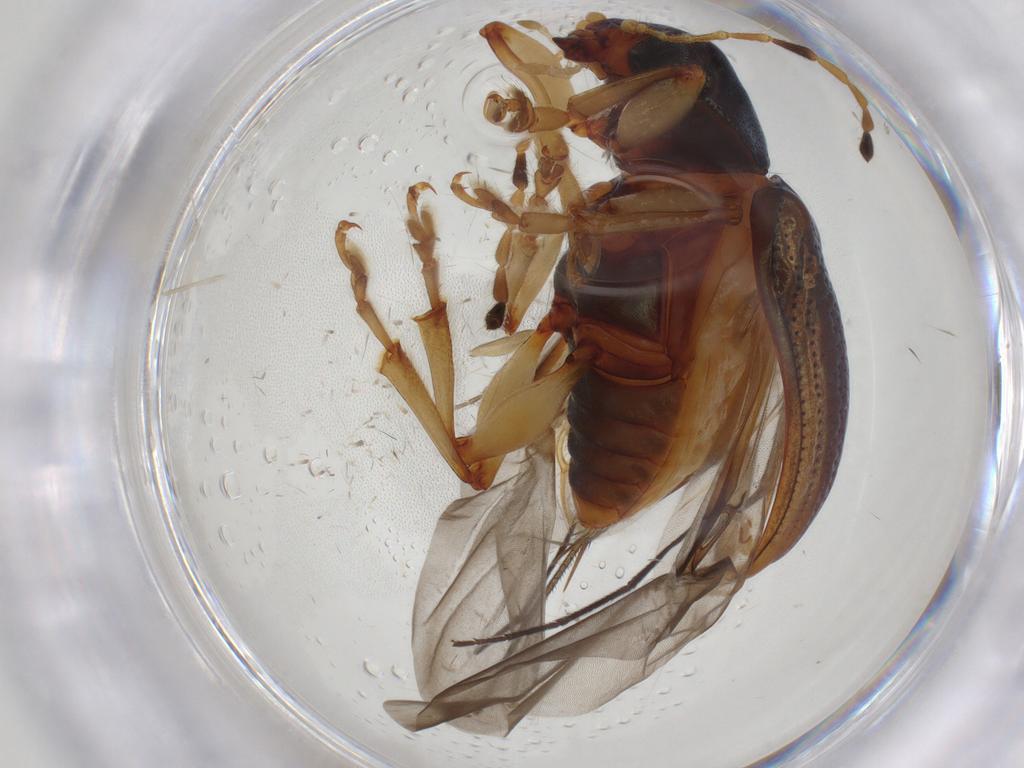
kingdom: Animalia
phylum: Arthropoda
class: Insecta
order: Coleoptera
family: Chrysomelidae
